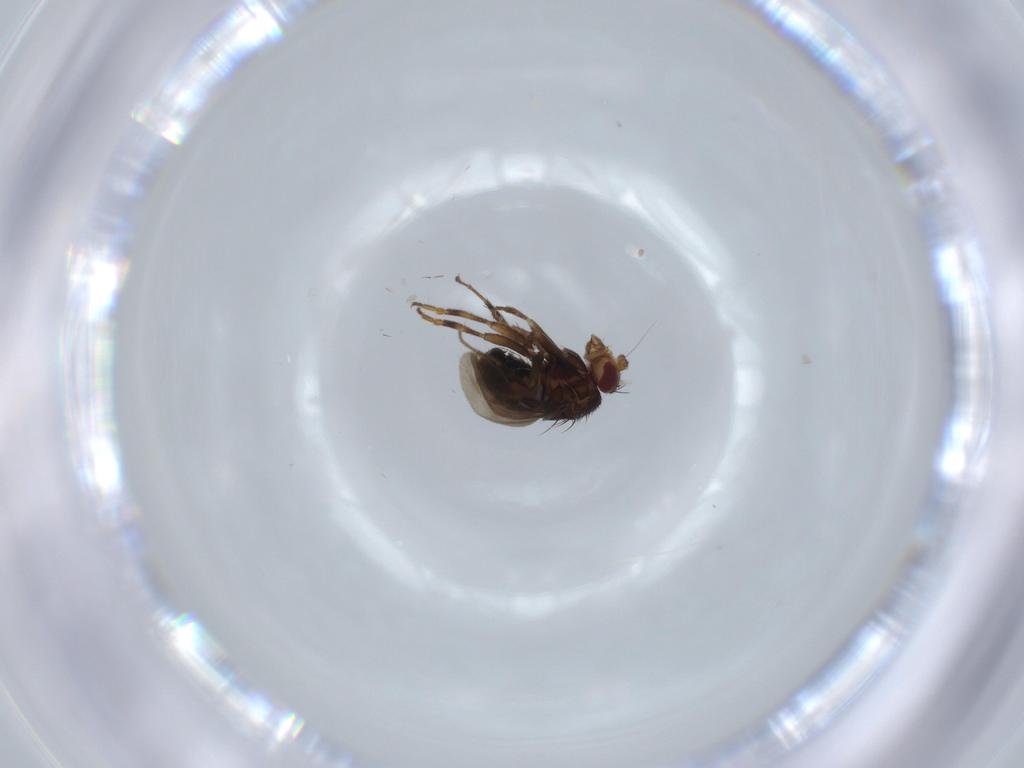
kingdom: Animalia
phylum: Arthropoda
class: Insecta
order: Diptera
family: Sphaeroceridae
